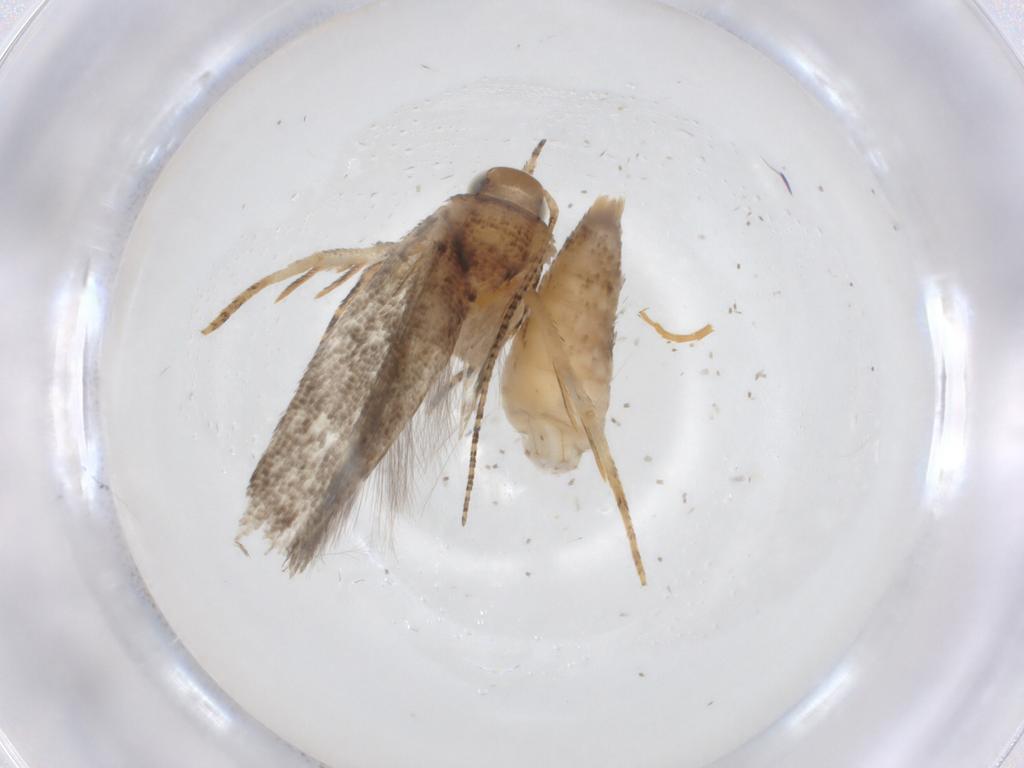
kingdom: Animalia
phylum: Arthropoda
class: Insecta
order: Lepidoptera
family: Gelechiidae
